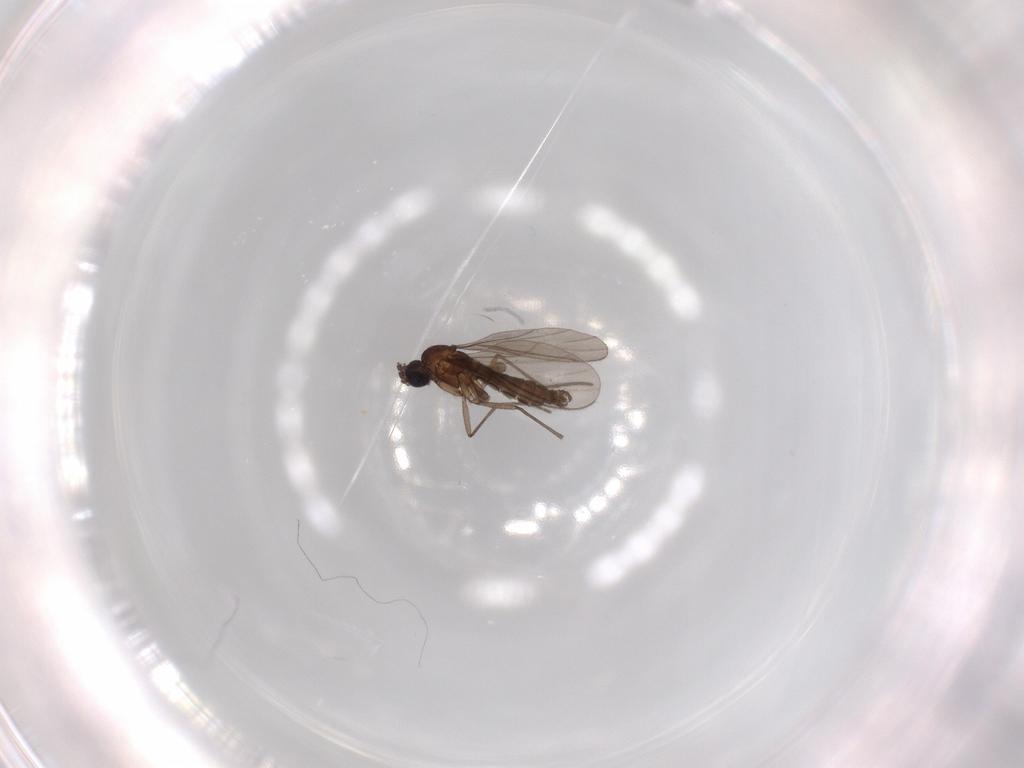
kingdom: Animalia
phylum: Arthropoda
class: Insecta
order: Diptera
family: Sciaridae
